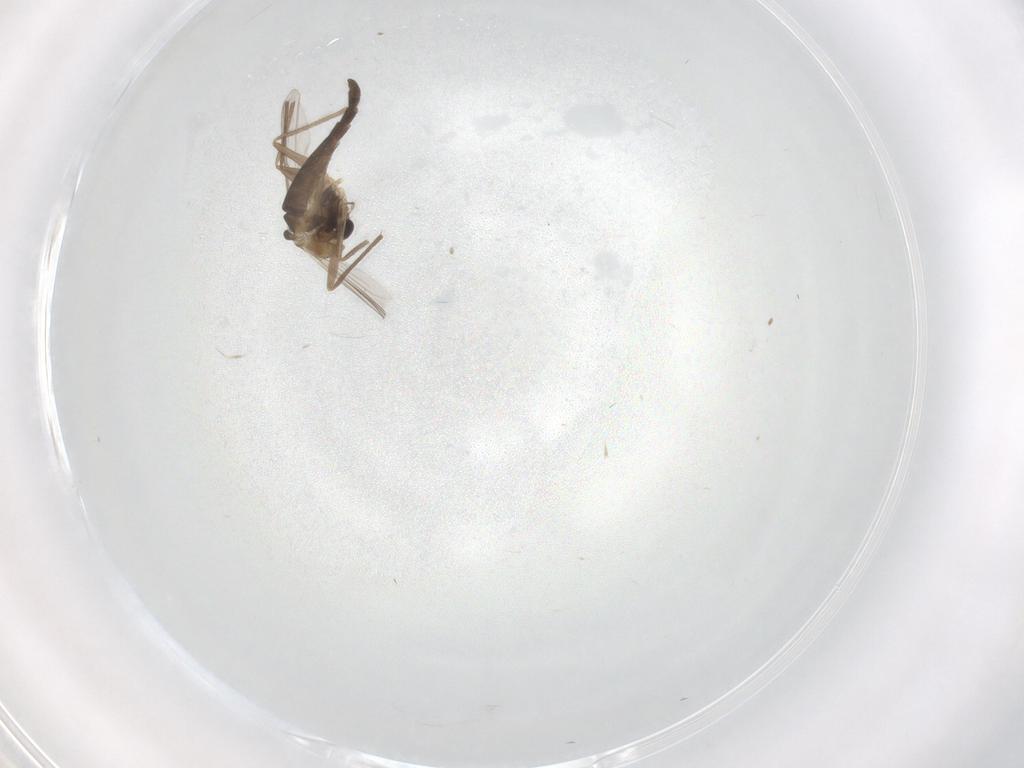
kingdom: Animalia
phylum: Arthropoda
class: Insecta
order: Diptera
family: Chironomidae
